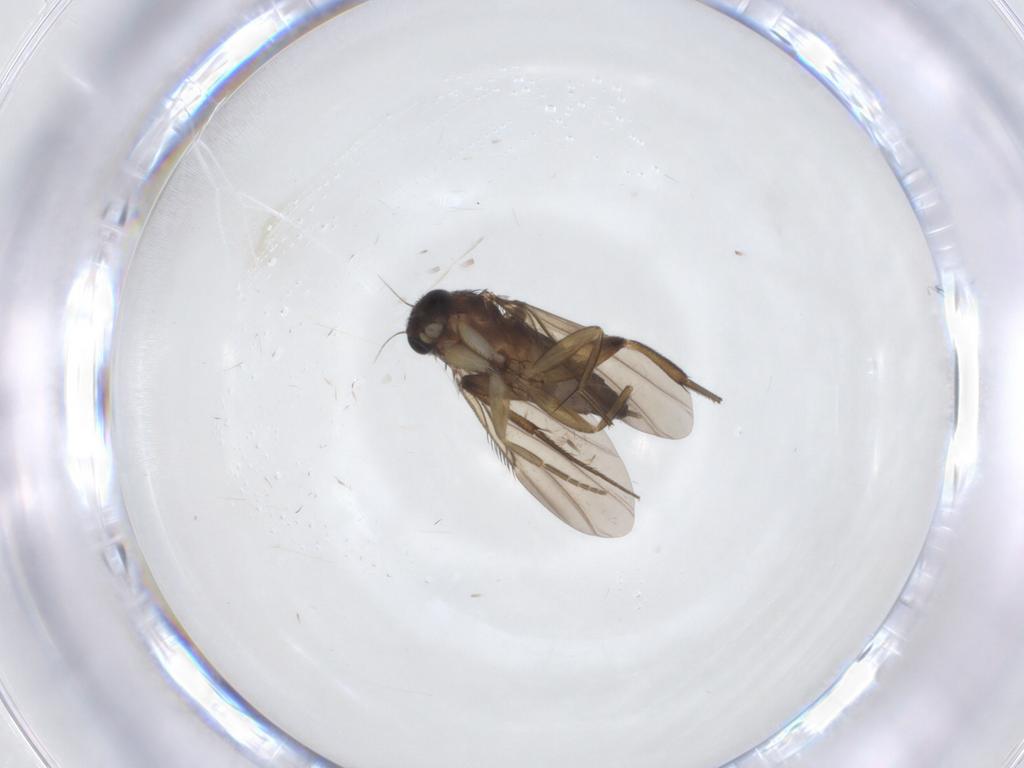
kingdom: Animalia
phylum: Arthropoda
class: Insecta
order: Diptera
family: Phoridae
